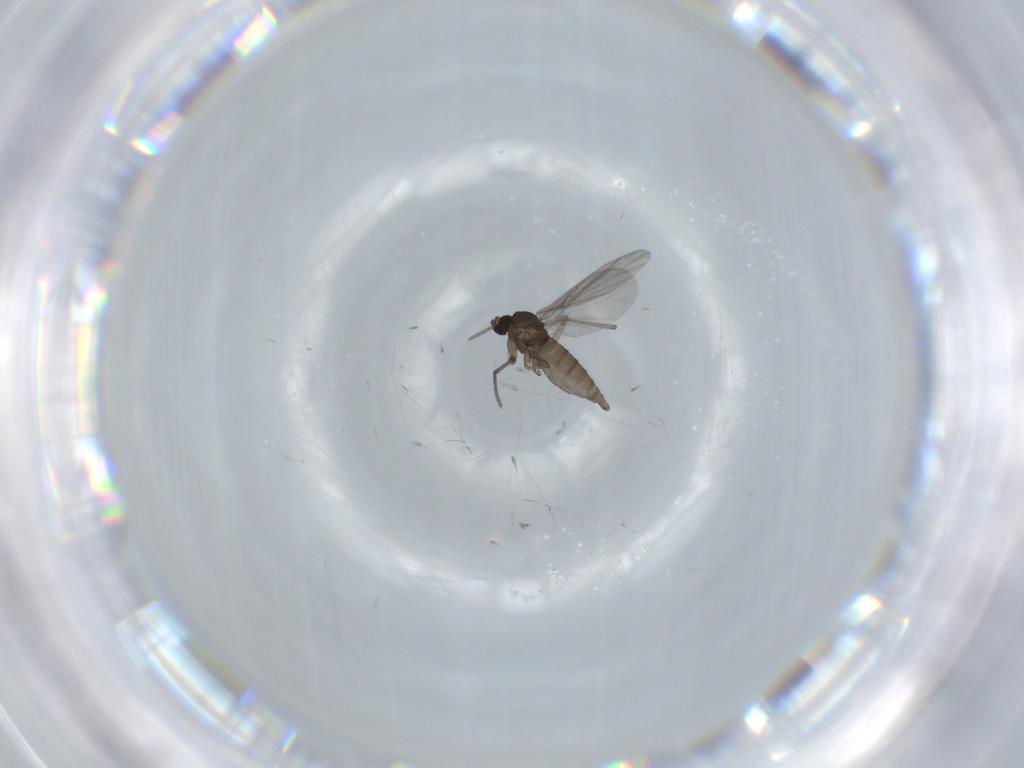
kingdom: Animalia
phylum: Arthropoda
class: Insecta
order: Diptera
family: Sciaridae
